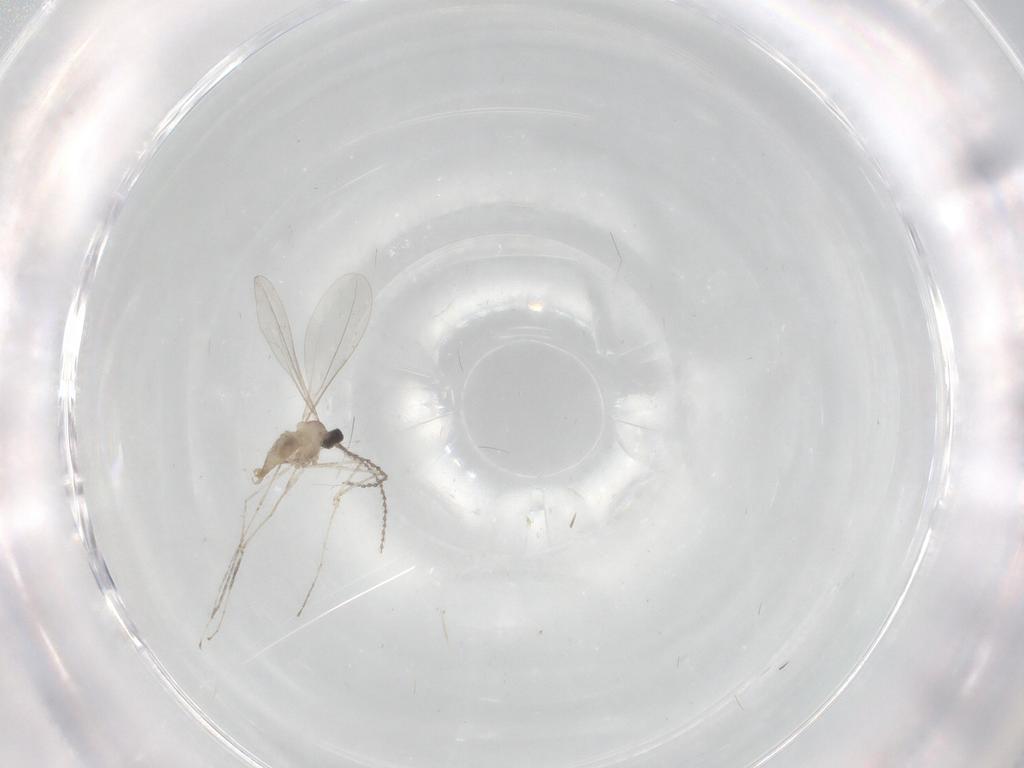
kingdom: Animalia
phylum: Arthropoda
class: Insecta
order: Diptera
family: Cecidomyiidae
